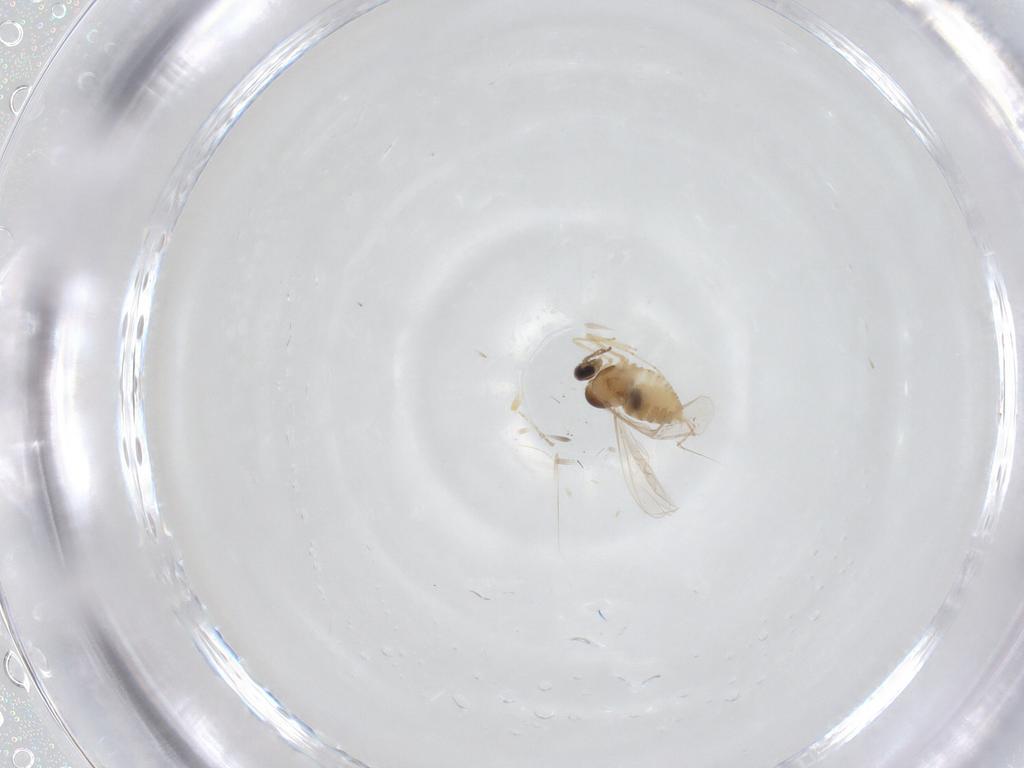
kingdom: Animalia
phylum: Arthropoda
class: Insecta
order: Diptera
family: Cecidomyiidae
